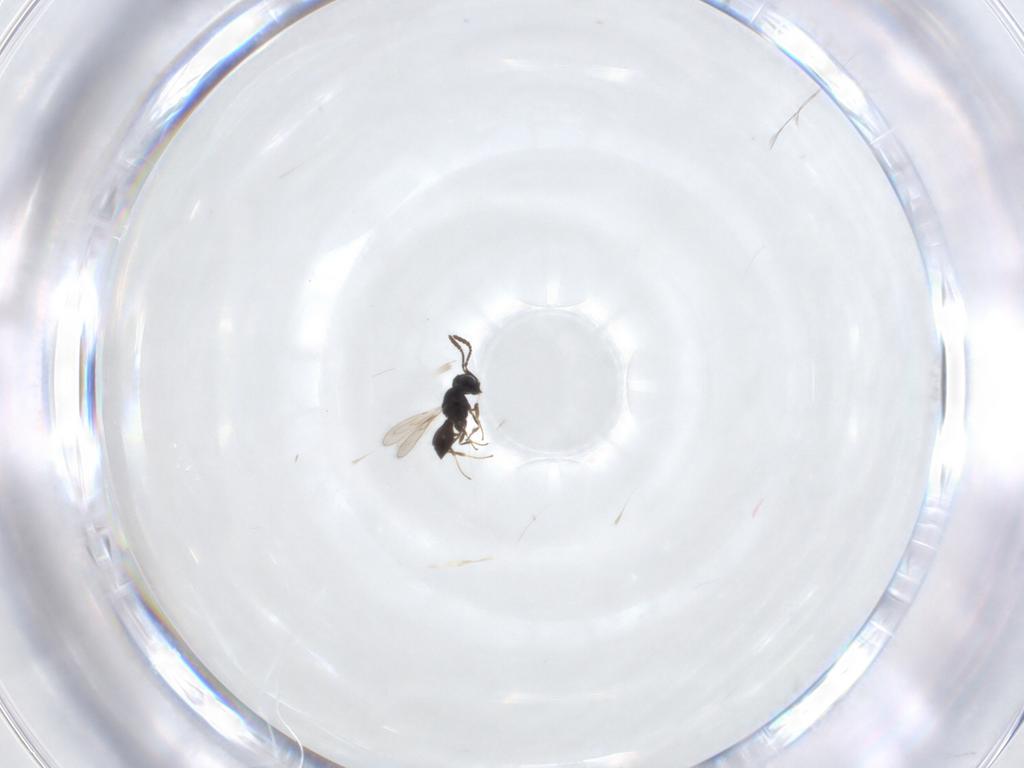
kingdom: Animalia
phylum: Arthropoda
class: Insecta
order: Hymenoptera
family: Scelionidae
